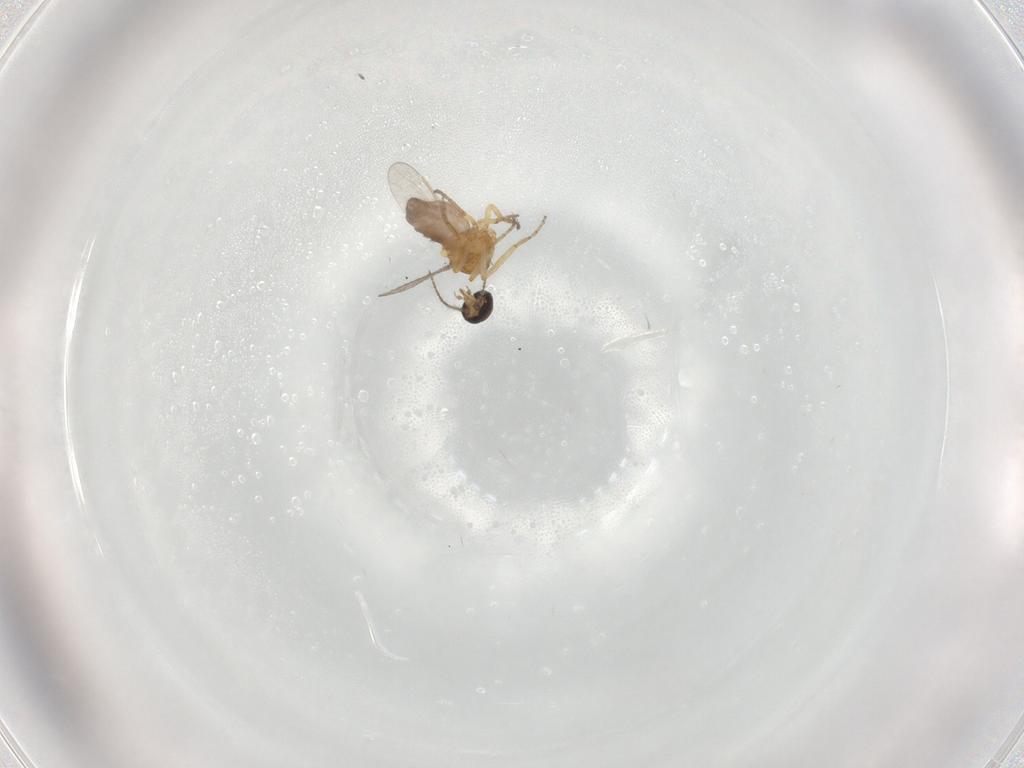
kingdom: Animalia
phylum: Arthropoda
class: Insecta
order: Diptera
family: Ceratopogonidae
